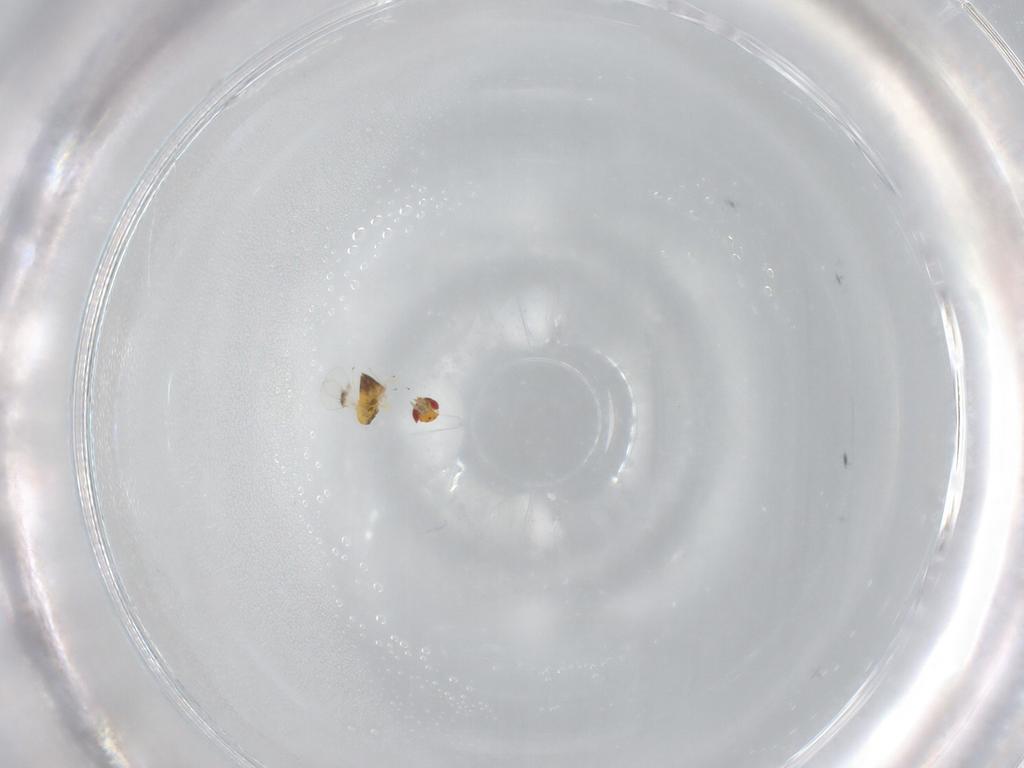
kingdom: Animalia
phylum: Arthropoda
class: Insecta
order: Hymenoptera
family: Trichogrammatidae
